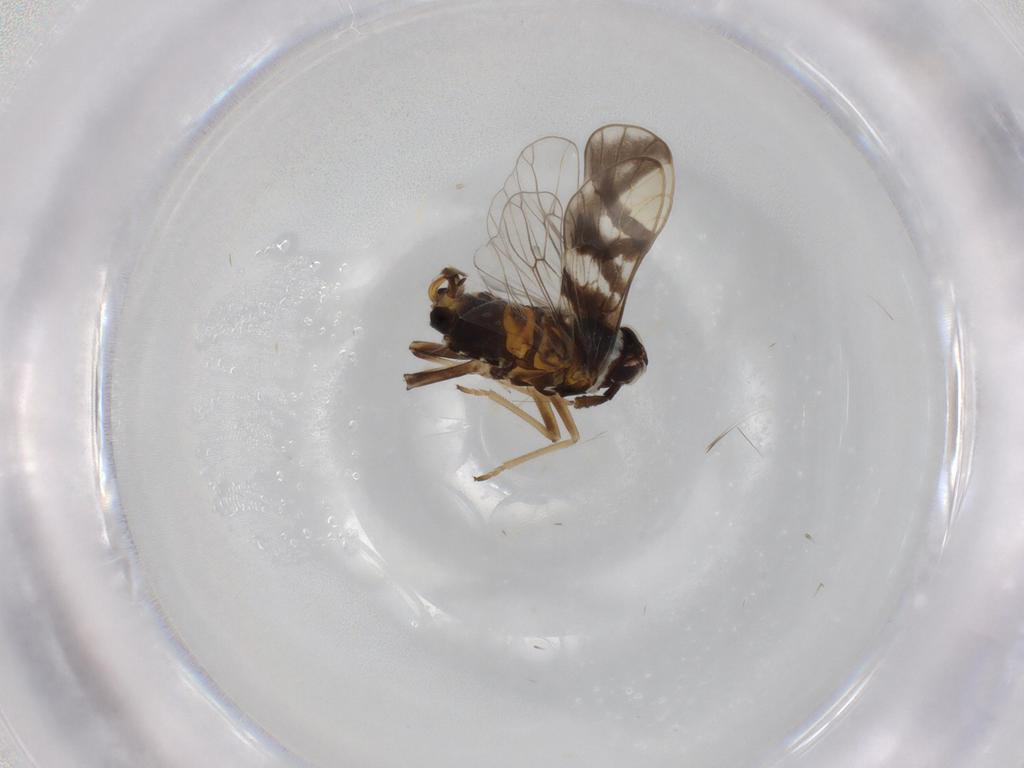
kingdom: Animalia
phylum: Arthropoda
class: Insecta
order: Hemiptera
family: Delphacidae
